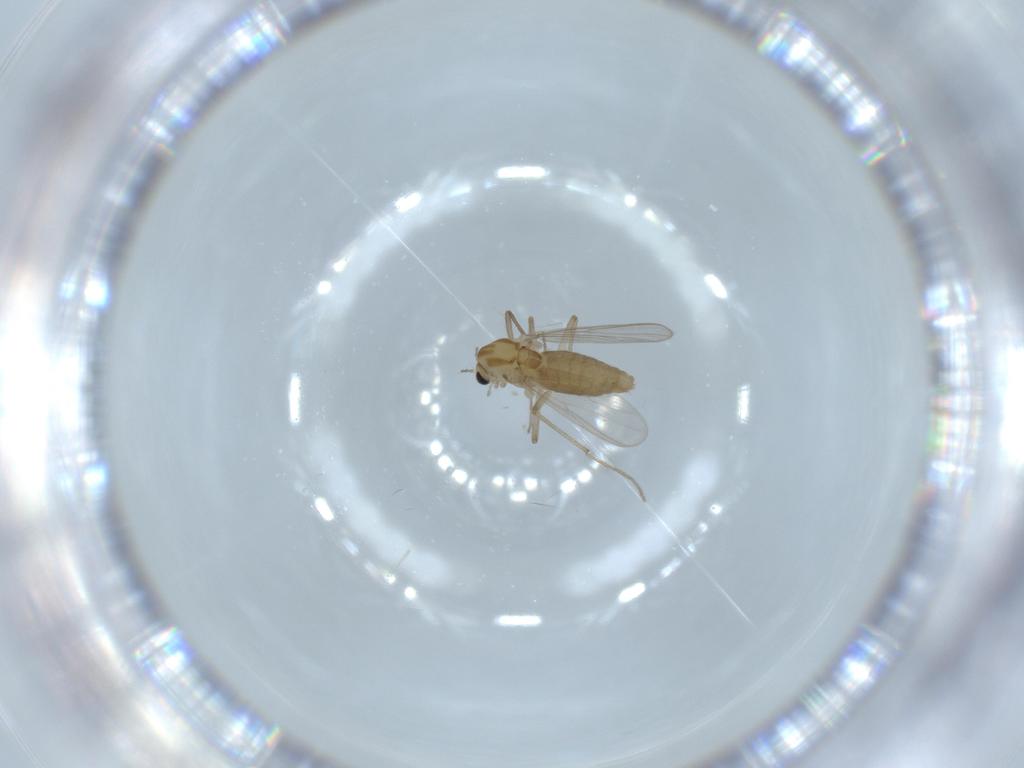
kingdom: Animalia
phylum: Arthropoda
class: Insecta
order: Diptera
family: Chironomidae
